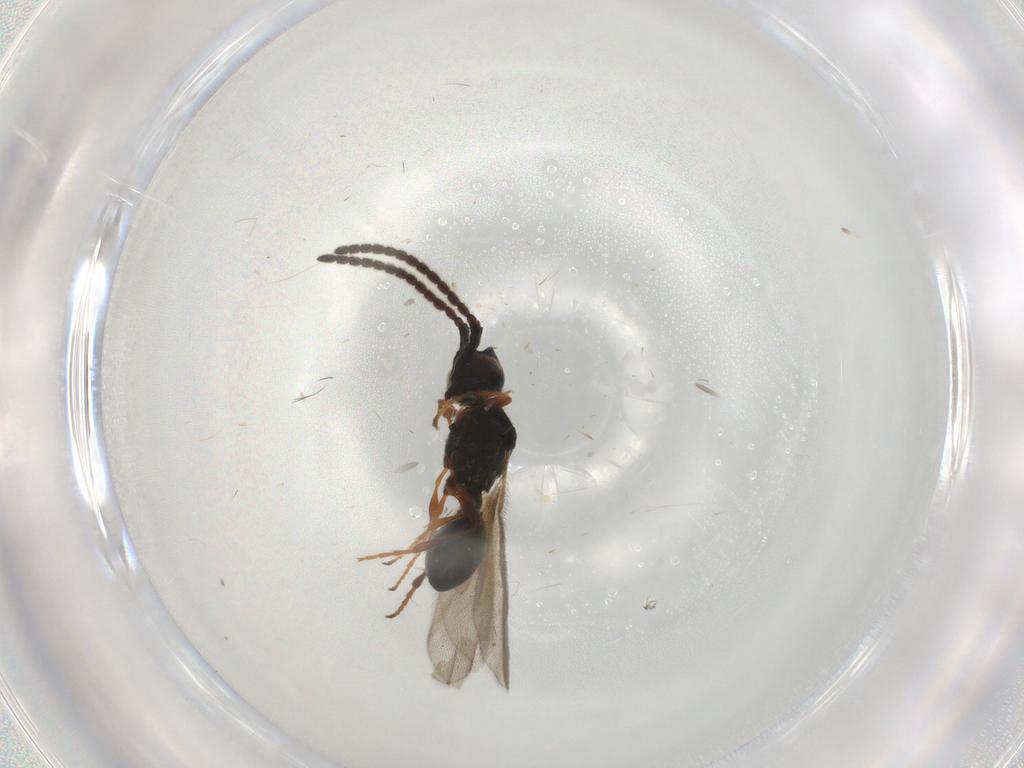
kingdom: Animalia
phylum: Arthropoda
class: Insecta
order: Hymenoptera
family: Diapriidae
